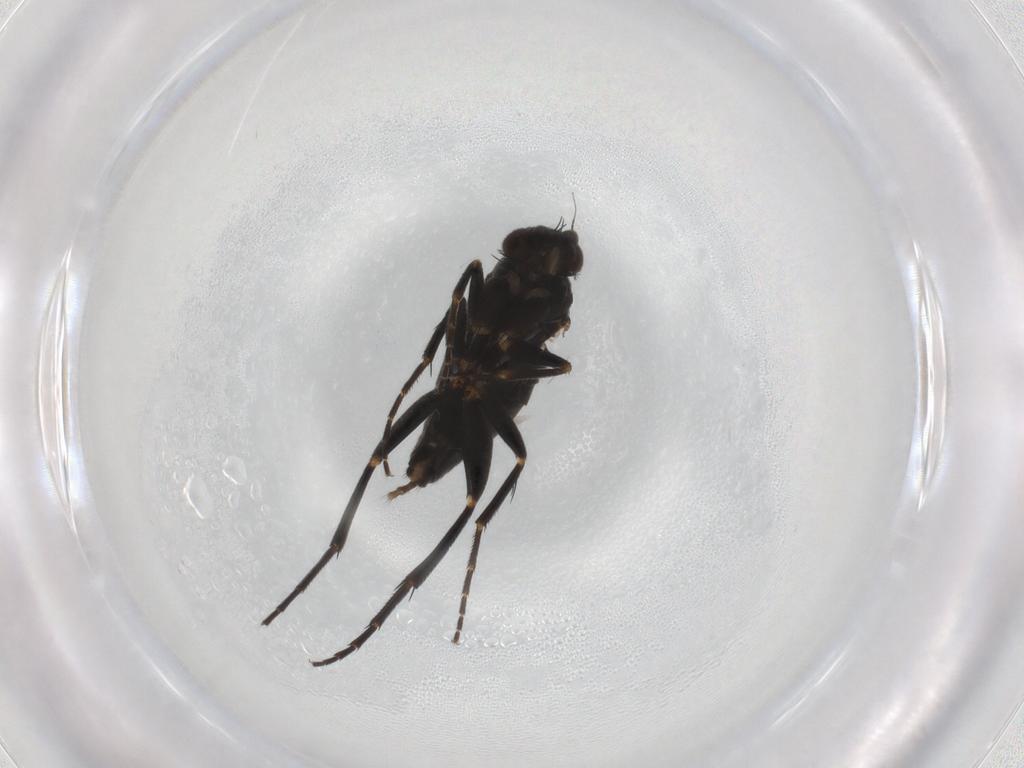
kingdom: Animalia
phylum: Arthropoda
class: Insecta
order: Diptera
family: Phoridae
